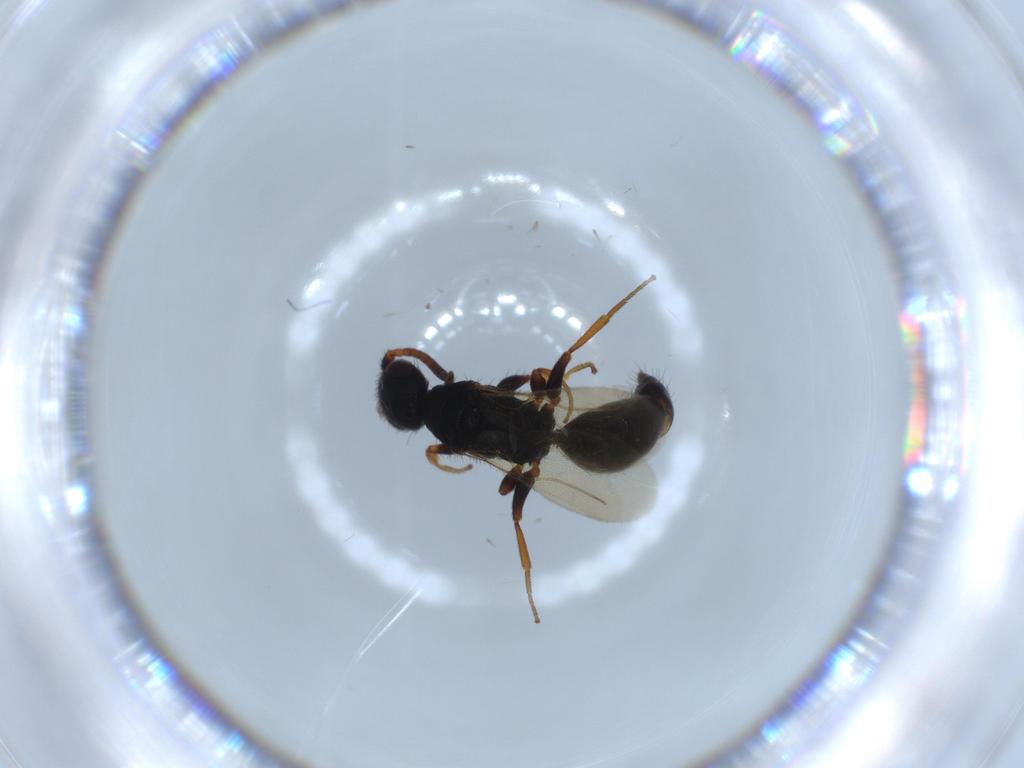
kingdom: Animalia
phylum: Arthropoda
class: Insecta
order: Hymenoptera
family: Bethylidae
